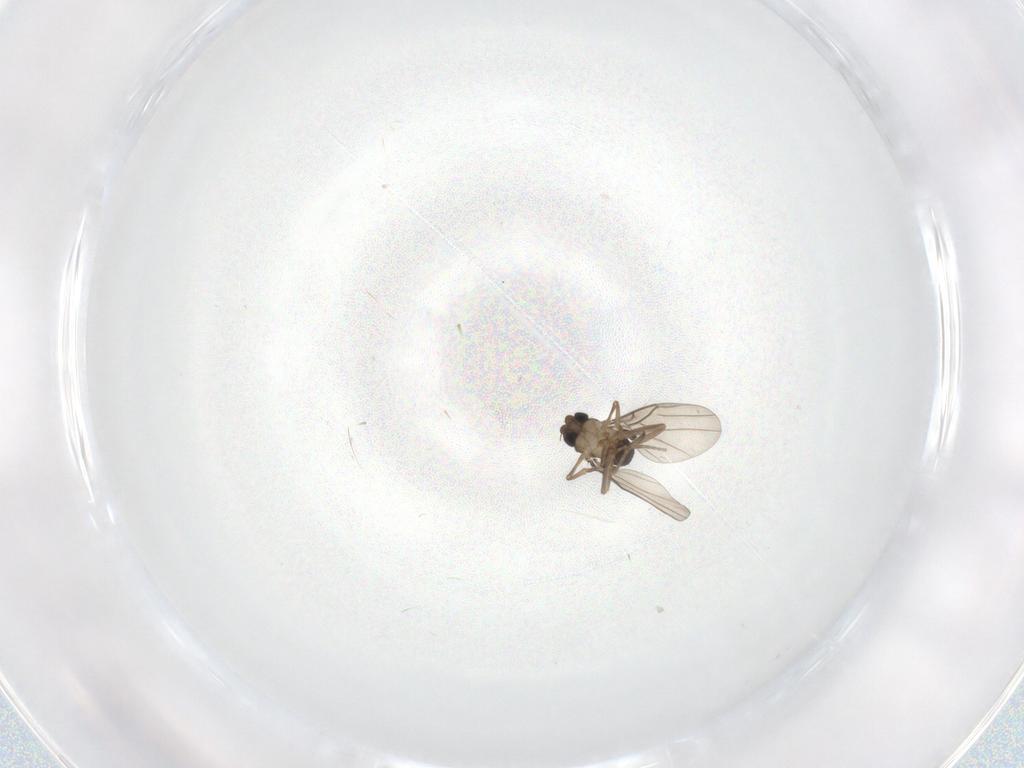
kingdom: Animalia
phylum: Arthropoda
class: Insecta
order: Diptera
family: Phoridae
